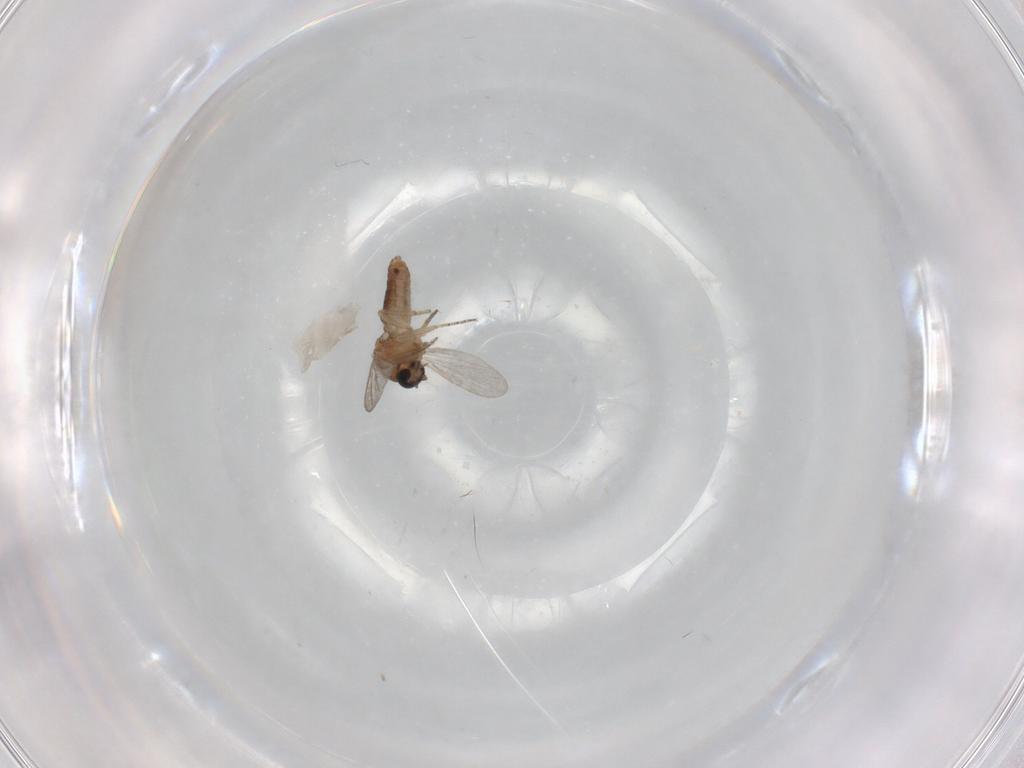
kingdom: Animalia
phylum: Arthropoda
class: Insecta
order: Diptera
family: Ceratopogonidae
